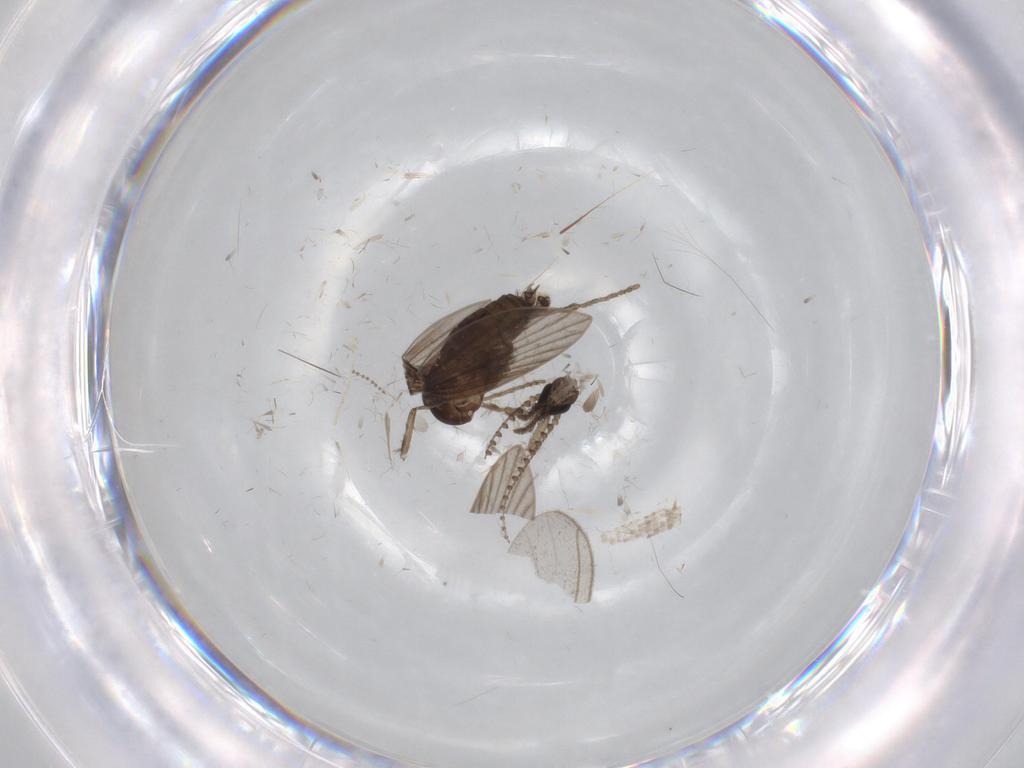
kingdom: Animalia
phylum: Arthropoda
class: Insecta
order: Diptera
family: Psychodidae
